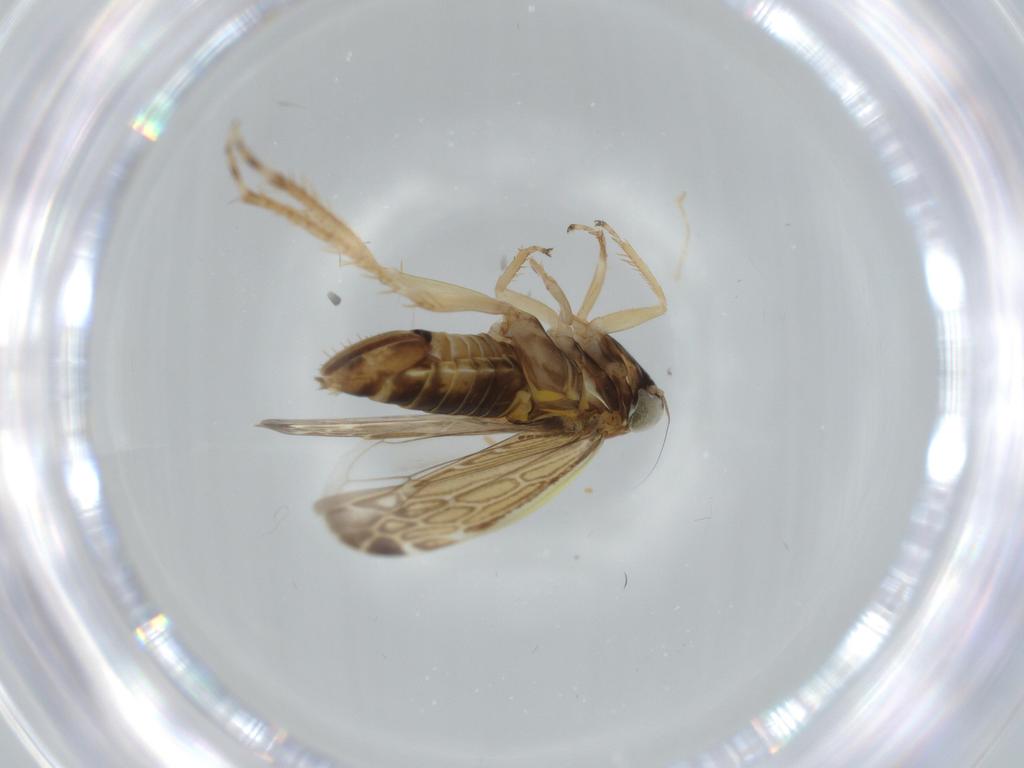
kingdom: Animalia
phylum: Arthropoda
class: Insecta
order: Hemiptera
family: Cicadellidae
